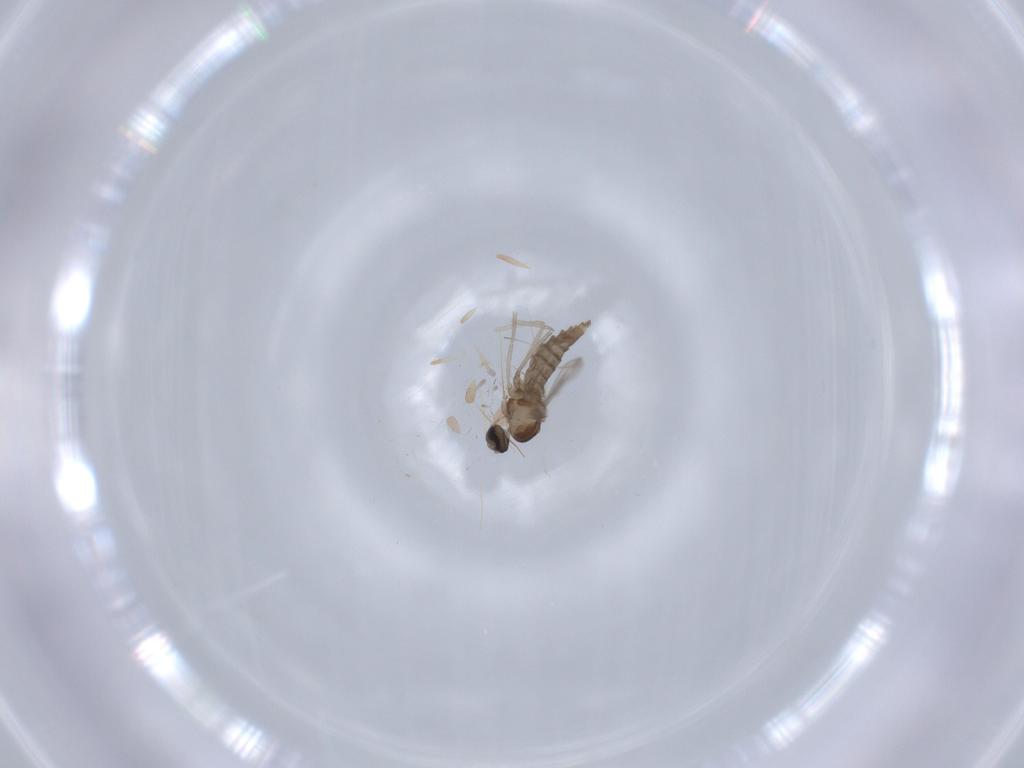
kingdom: Animalia
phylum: Arthropoda
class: Insecta
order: Diptera
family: Cecidomyiidae
